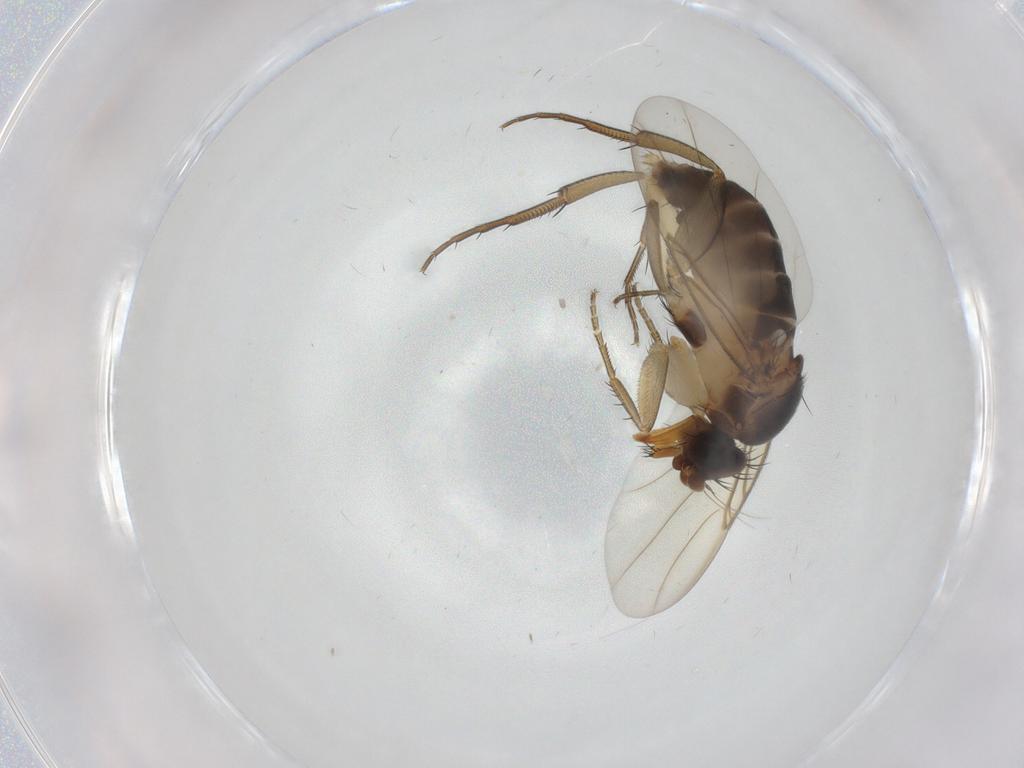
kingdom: Animalia
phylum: Arthropoda
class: Insecta
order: Diptera
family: Phoridae
